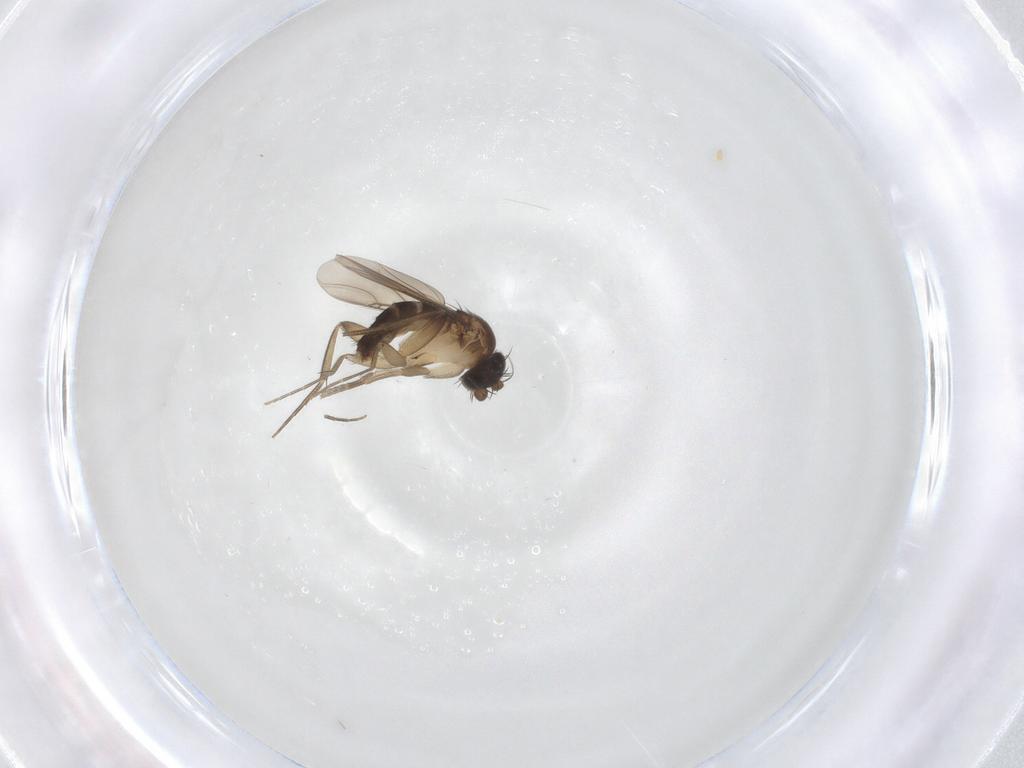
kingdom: Animalia
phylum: Arthropoda
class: Insecta
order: Diptera
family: Phoridae
